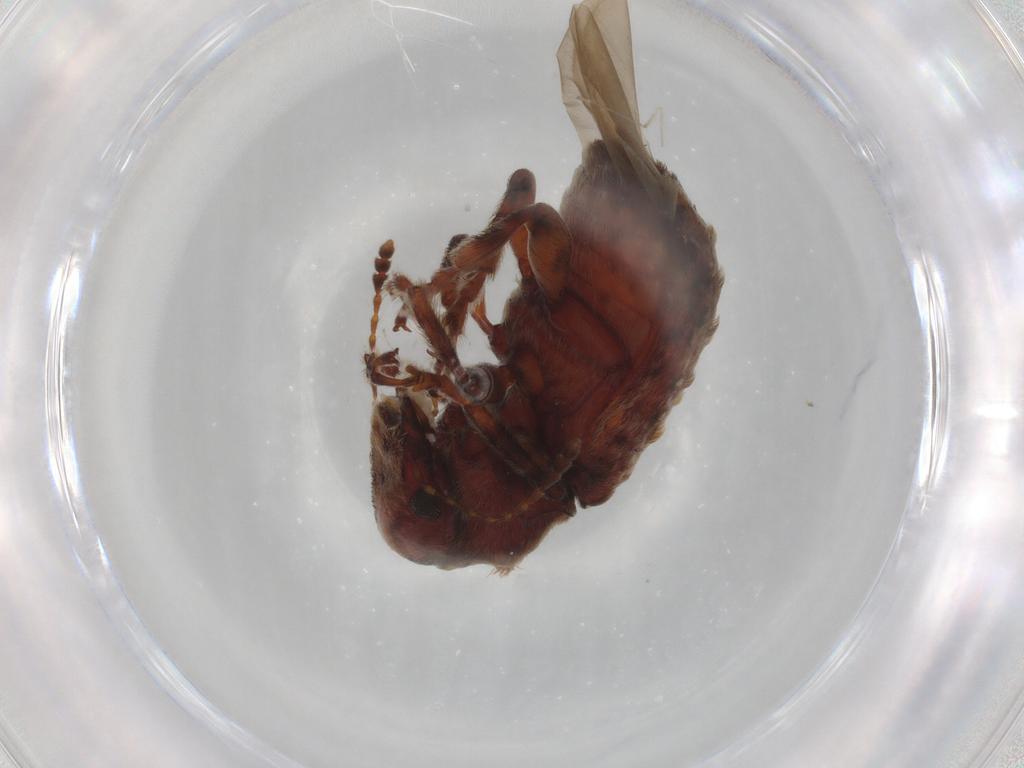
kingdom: Animalia
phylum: Arthropoda
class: Insecta
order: Coleoptera
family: Anthribidae
